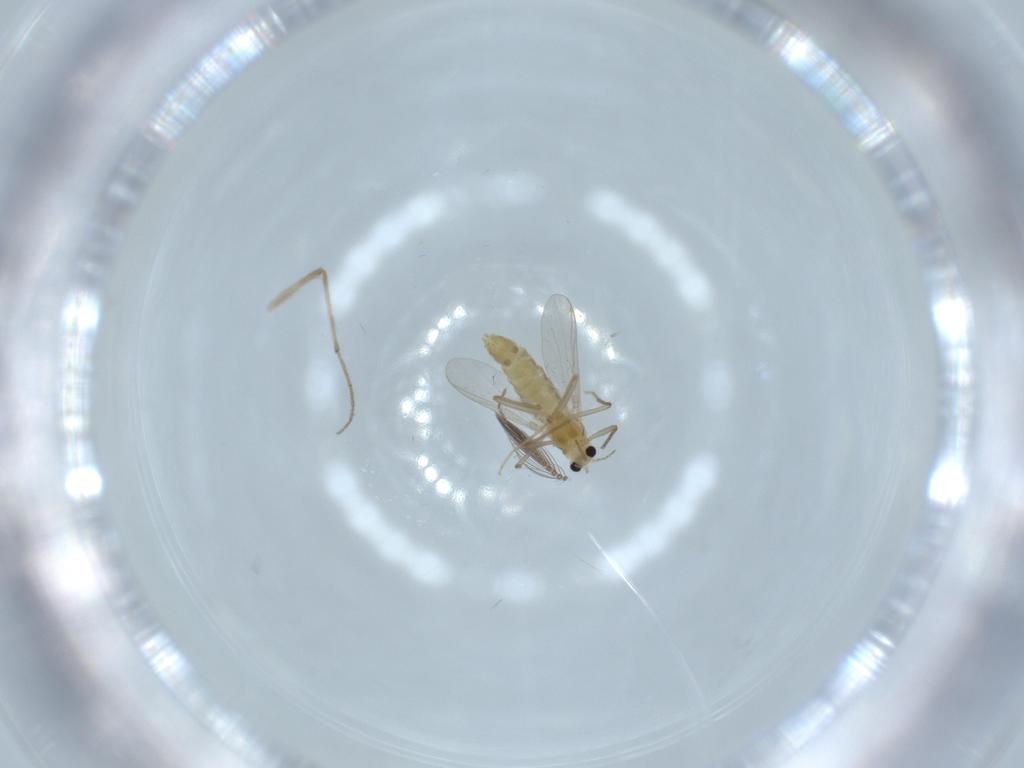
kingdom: Animalia
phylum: Arthropoda
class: Insecta
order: Diptera
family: Chironomidae
